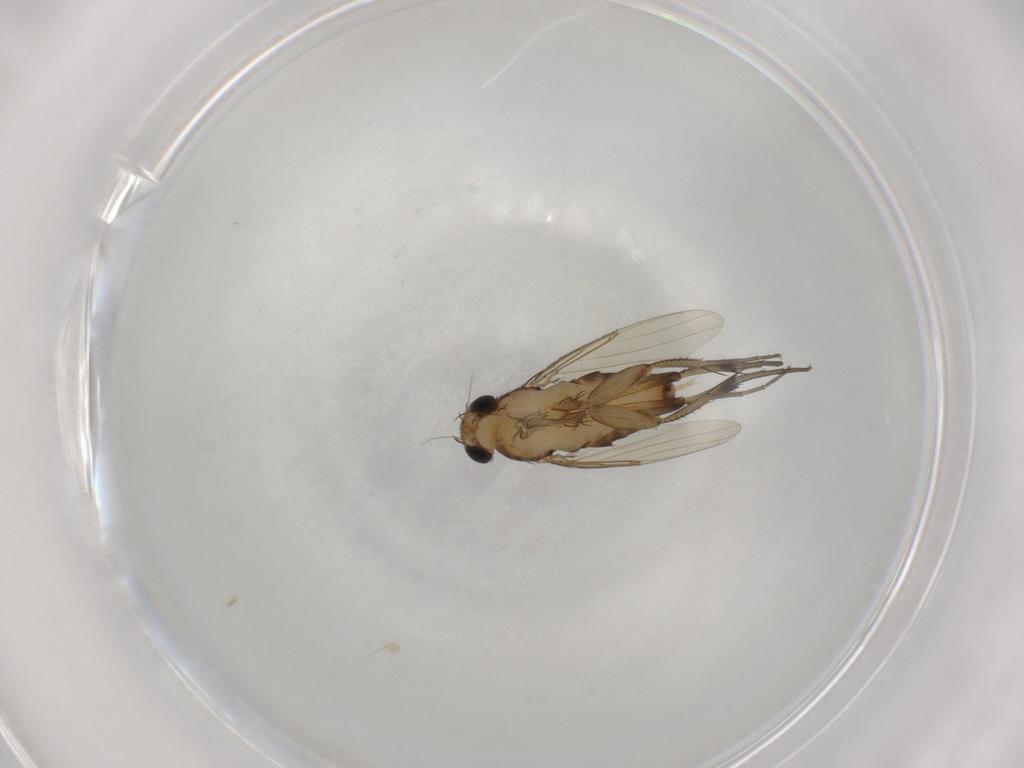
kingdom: Animalia
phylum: Arthropoda
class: Insecta
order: Diptera
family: Phoridae
